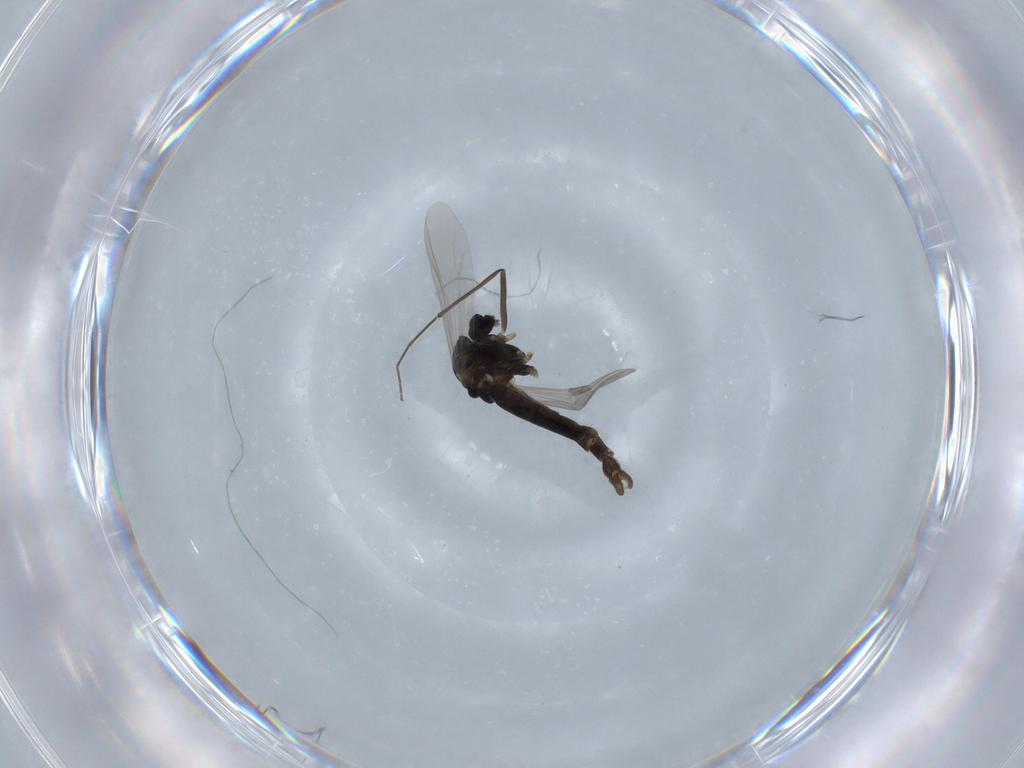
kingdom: Animalia
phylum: Arthropoda
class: Insecta
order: Diptera
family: Chironomidae
